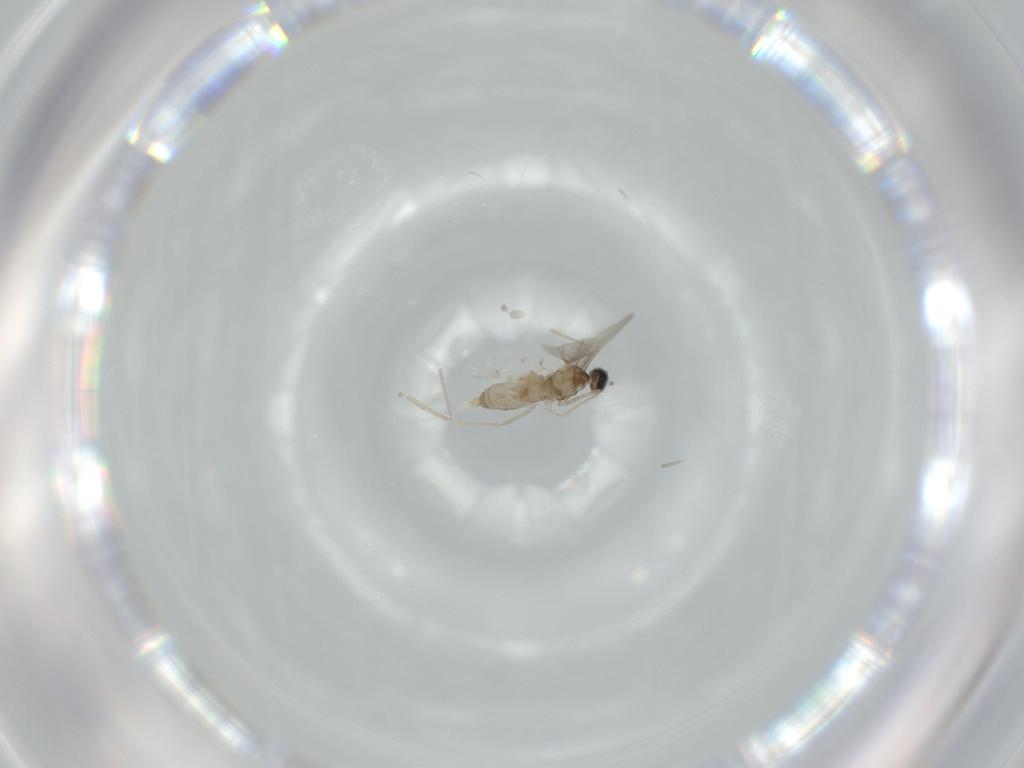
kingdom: Animalia
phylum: Arthropoda
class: Insecta
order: Diptera
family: Cecidomyiidae
